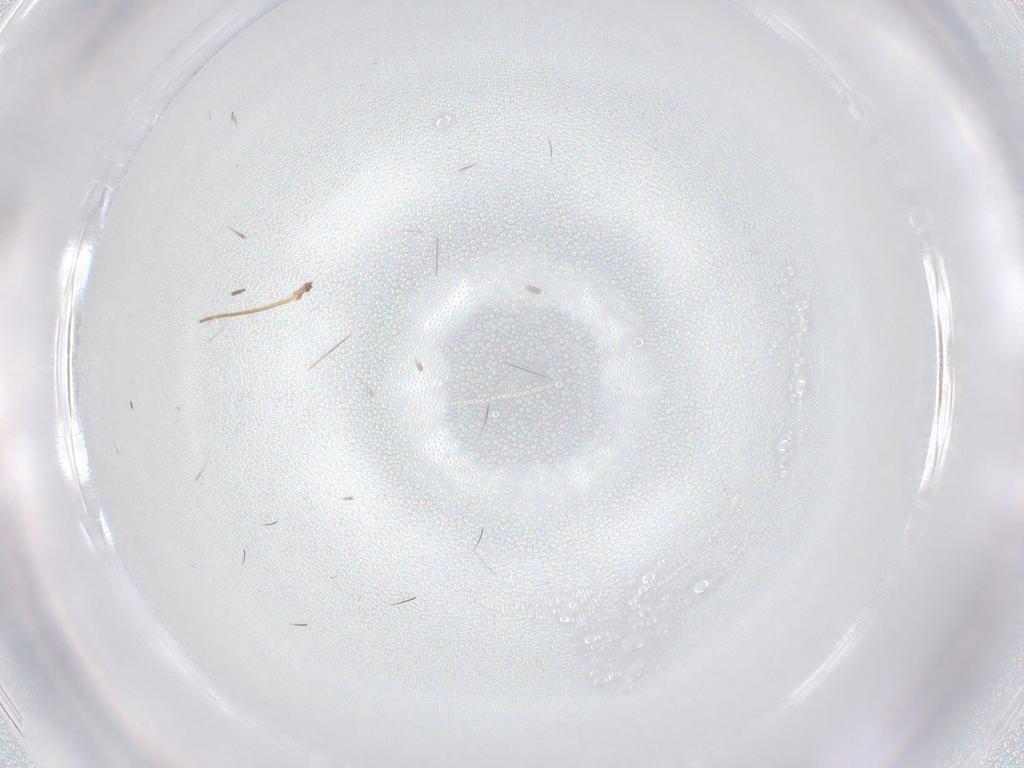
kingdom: Animalia
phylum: Arthropoda
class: Insecta
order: Diptera
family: Phoridae
